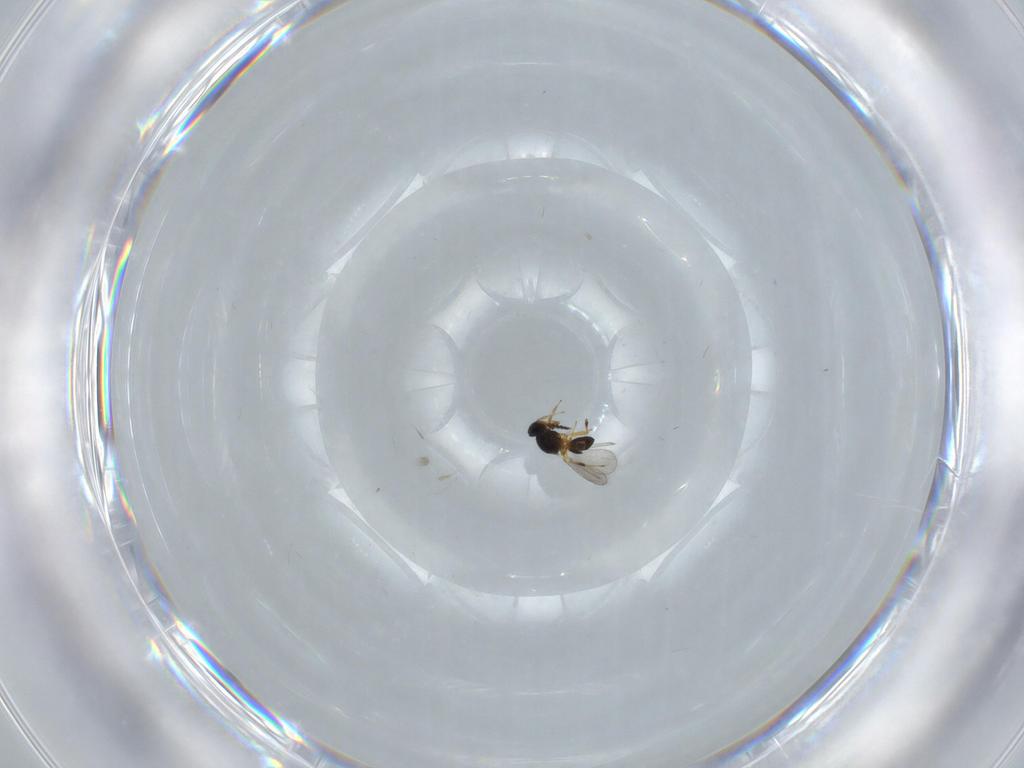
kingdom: Animalia
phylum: Arthropoda
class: Insecta
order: Hymenoptera
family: Platygastridae
